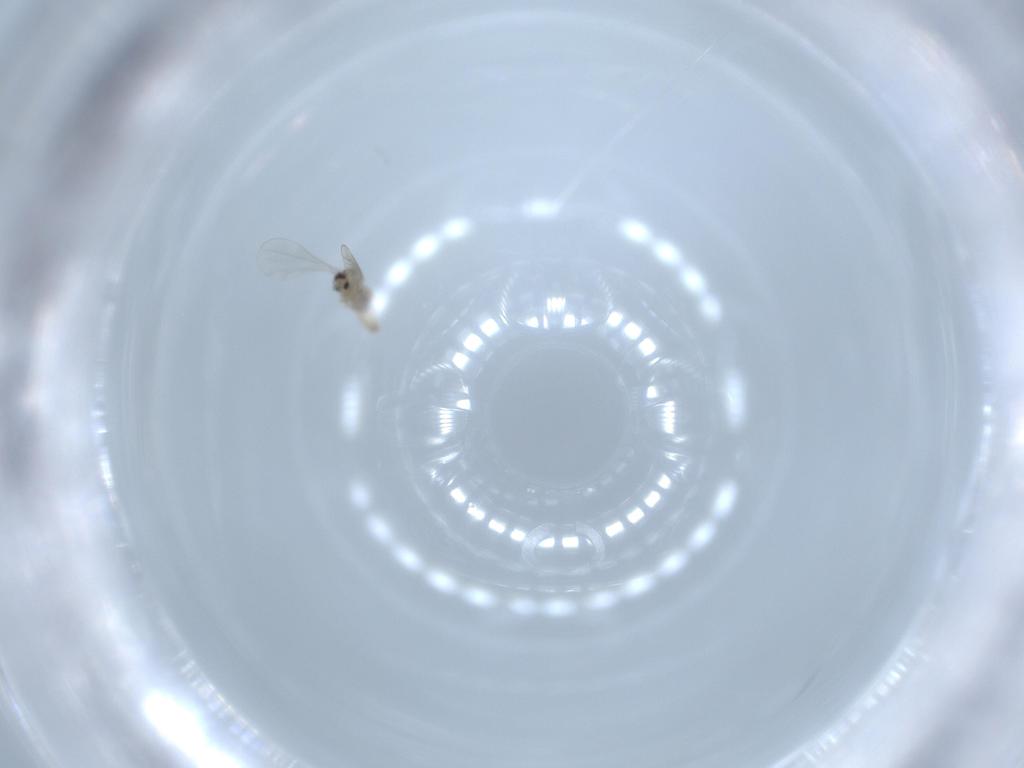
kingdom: Animalia
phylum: Arthropoda
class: Insecta
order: Diptera
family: Cecidomyiidae
